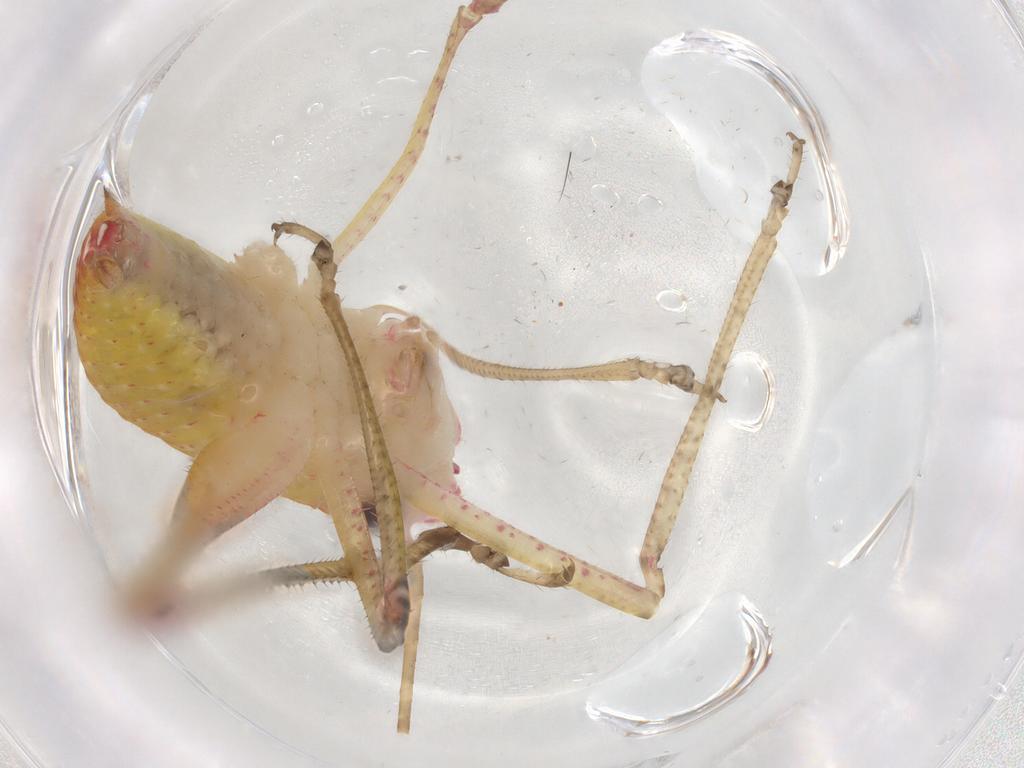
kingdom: Animalia
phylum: Arthropoda
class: Insecta
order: Orthoptera
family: Tettigoniidae
